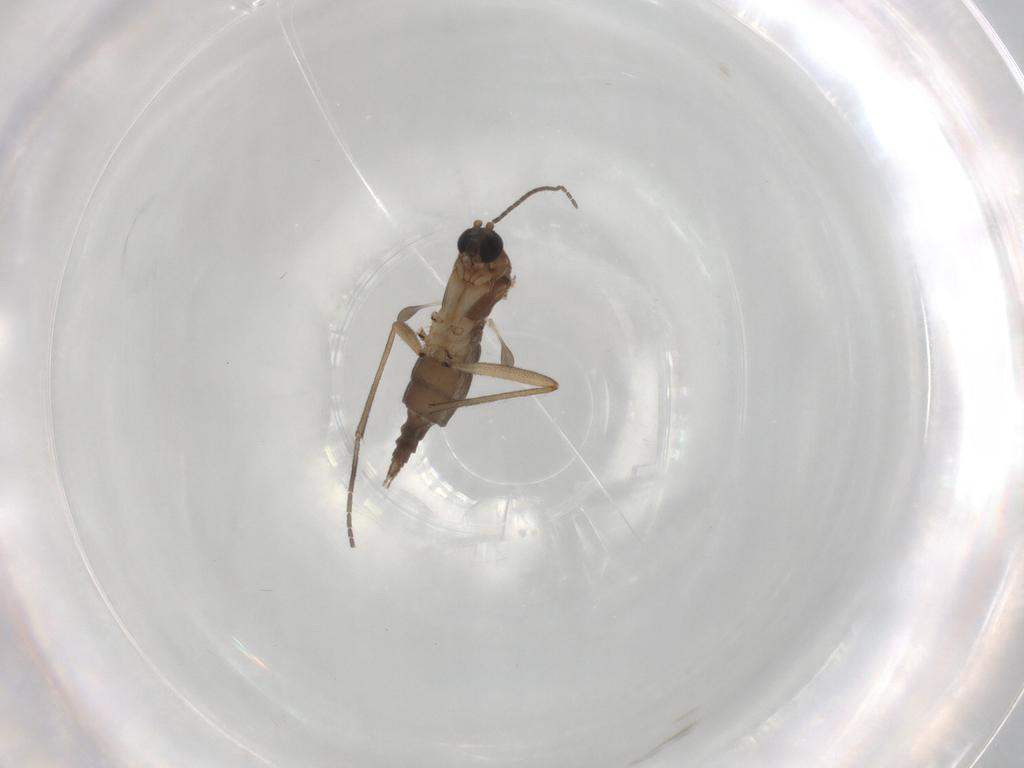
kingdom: Animalia
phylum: Arthropoda
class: Insecta
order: Diptera
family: Sciaridae
